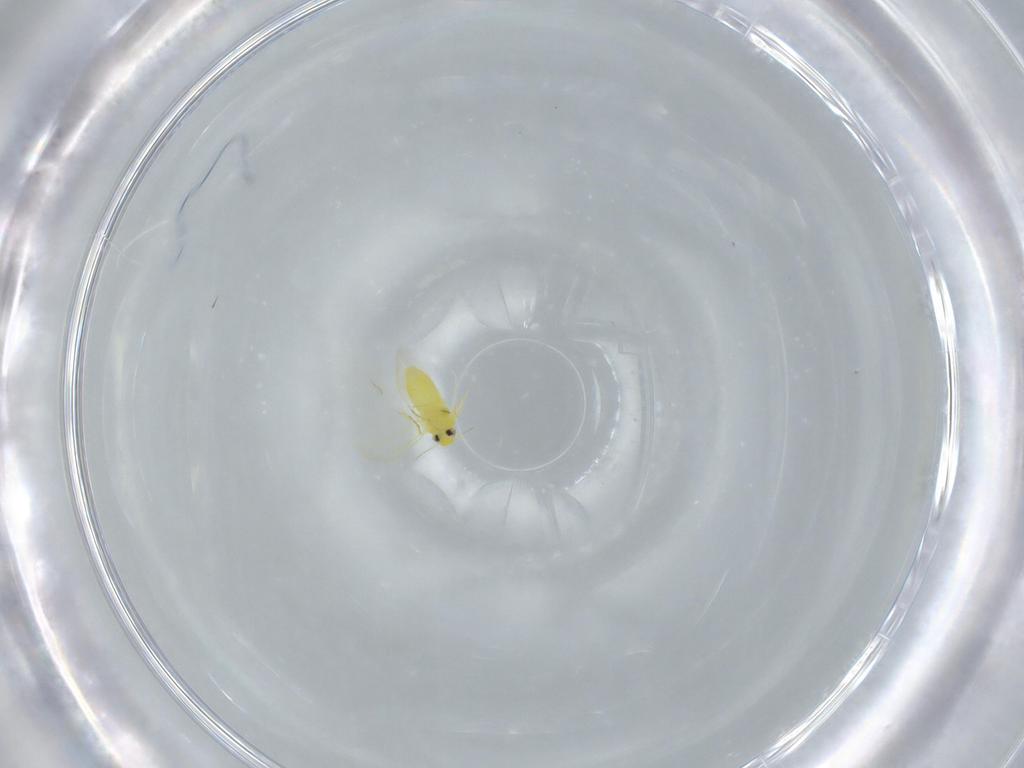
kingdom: Animalia
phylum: Arthropoda
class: Insecta
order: Hemiptera
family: Aleyrodidae
